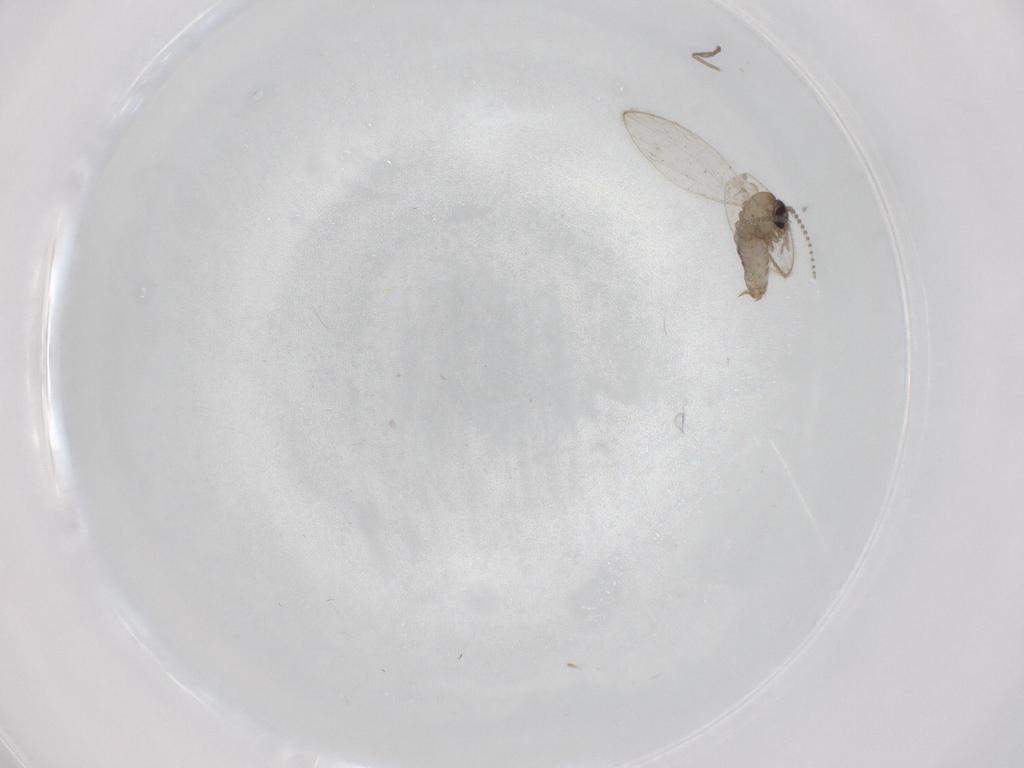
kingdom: Animalia
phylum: Arthropoda
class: Insecta
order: Diptera
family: Psychodidae
